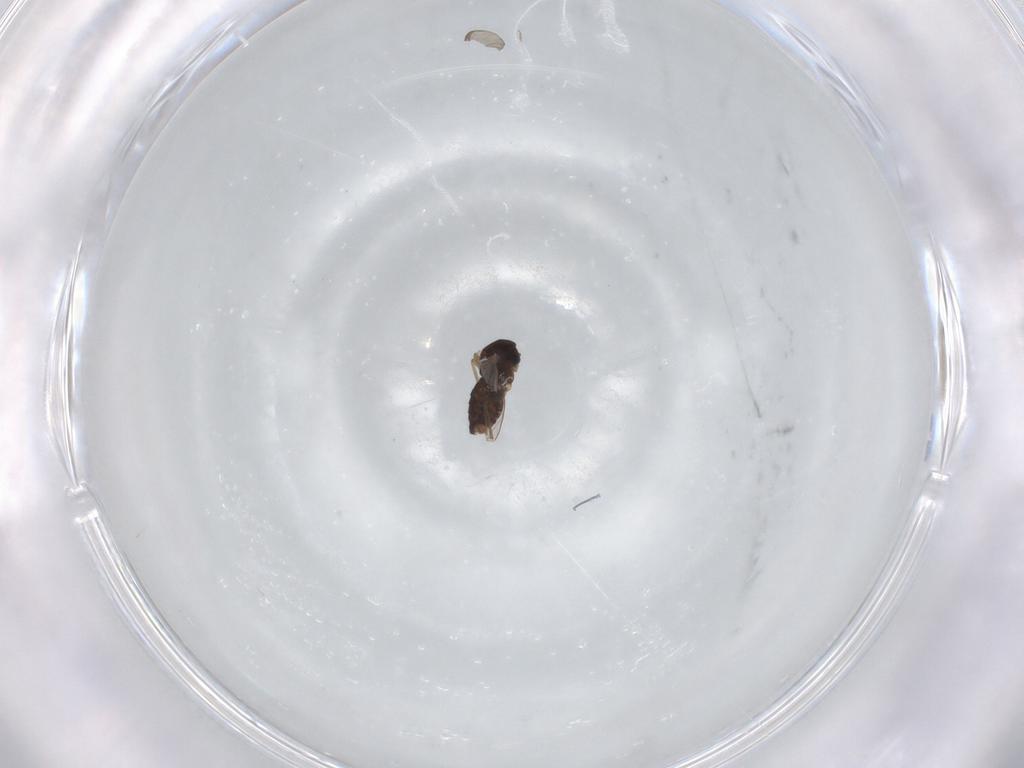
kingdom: Animalia
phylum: Arthropoda
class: Insecta
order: Diptera
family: Chironomidae
